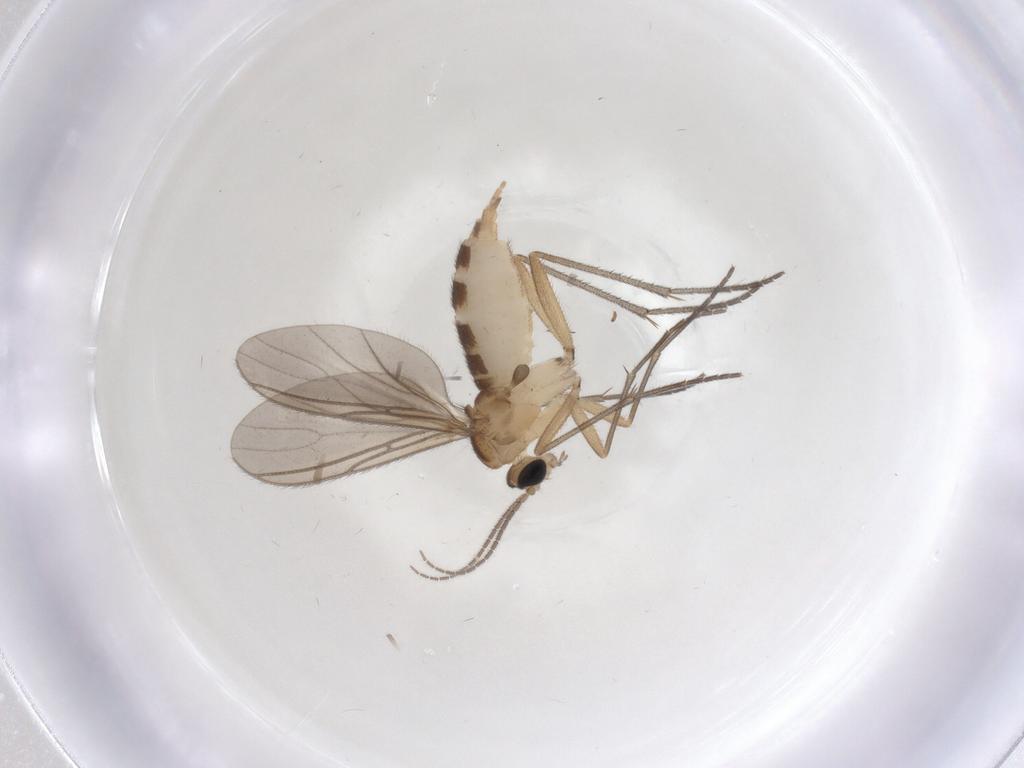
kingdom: Animalia
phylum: Arthropoda
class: Insecta
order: Diptera
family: Sciaridae
